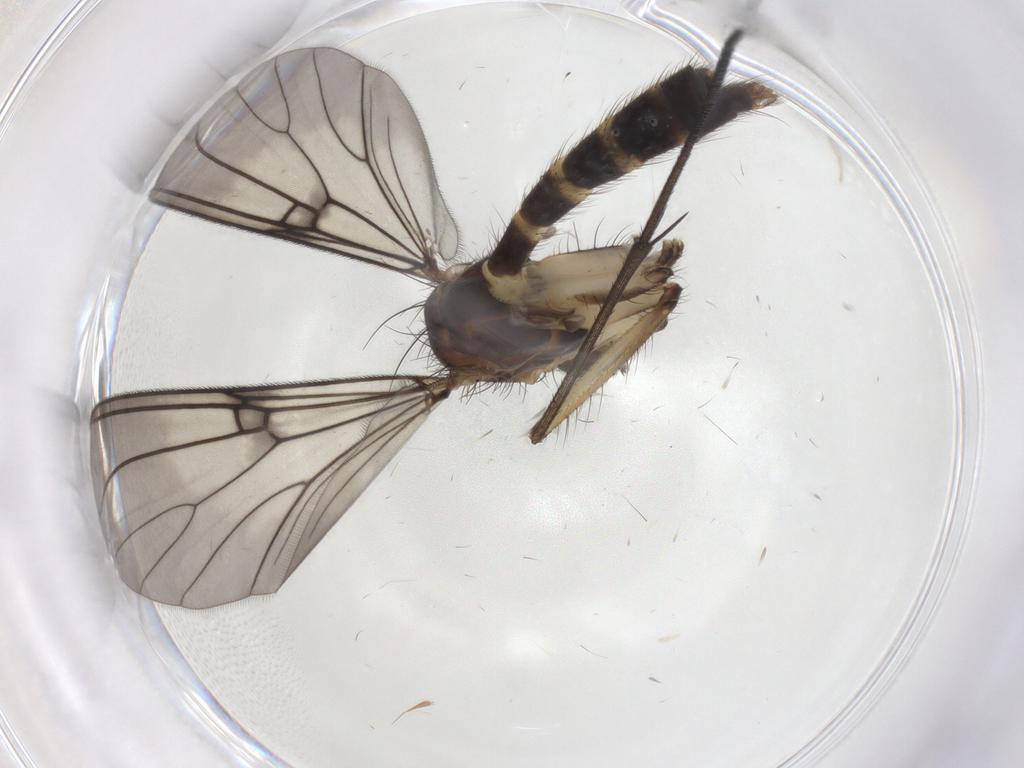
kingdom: Animalia
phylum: Arthropoda
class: Insecta
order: Diptera
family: Mycetophilidae
